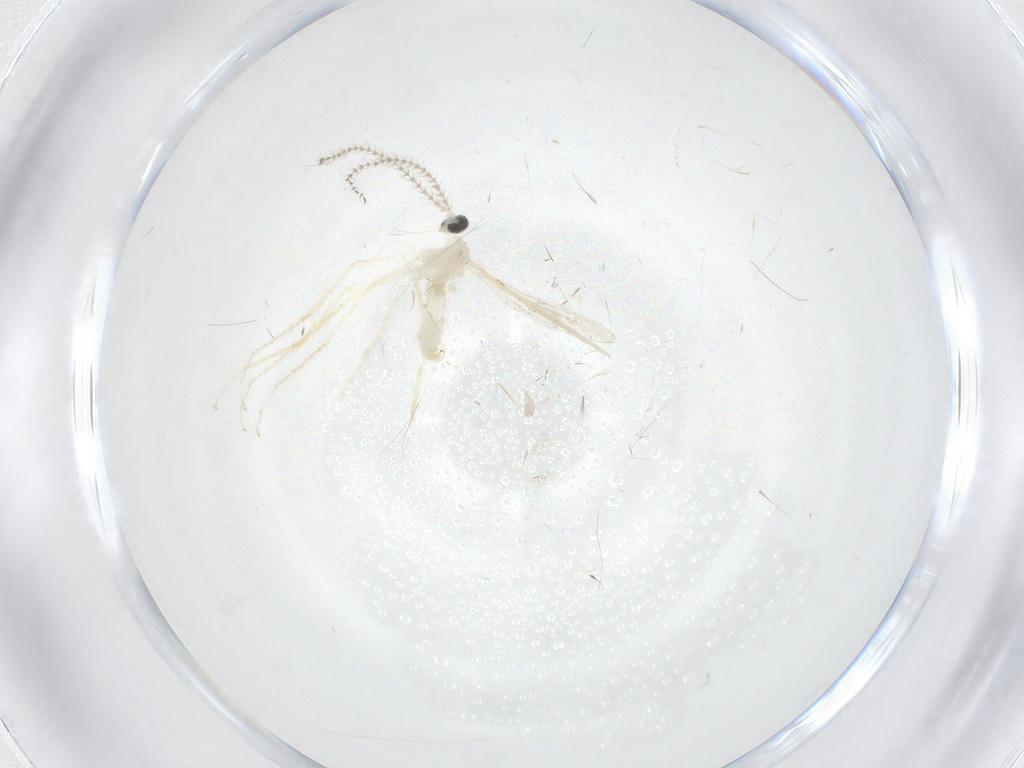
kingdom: Animalia
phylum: Arthropoda
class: Insecta
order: Diptera
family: Cecidomyiidae
